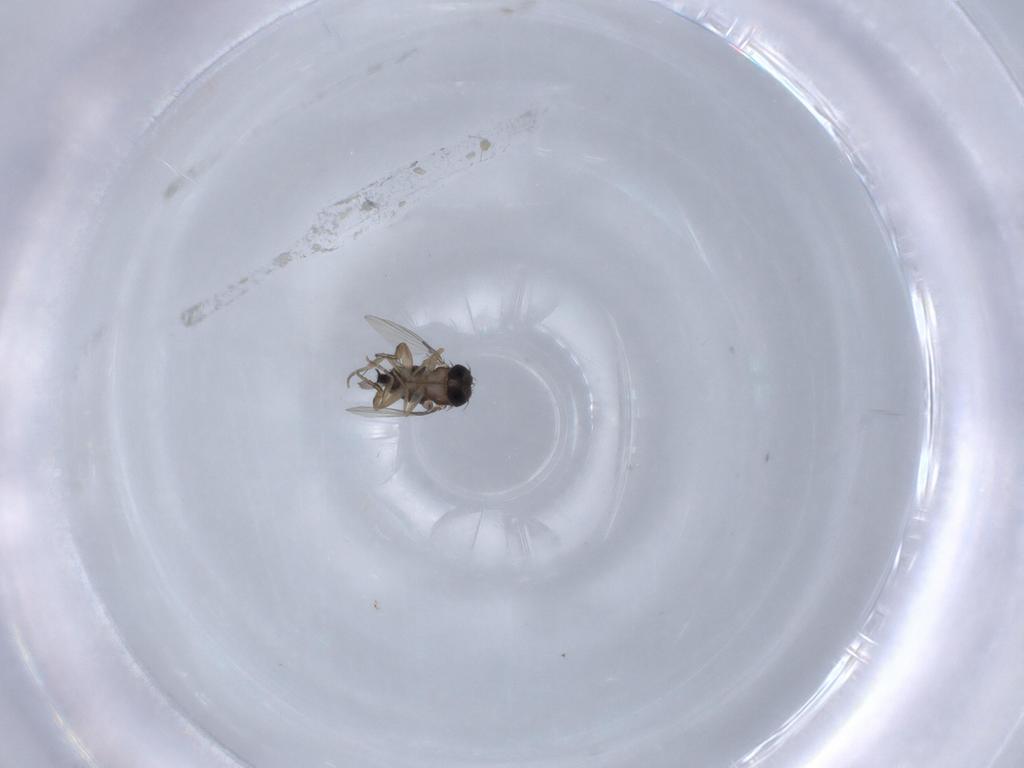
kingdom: Animalia
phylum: Arthropoda
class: Insecta
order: Diptera
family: Phoridae
